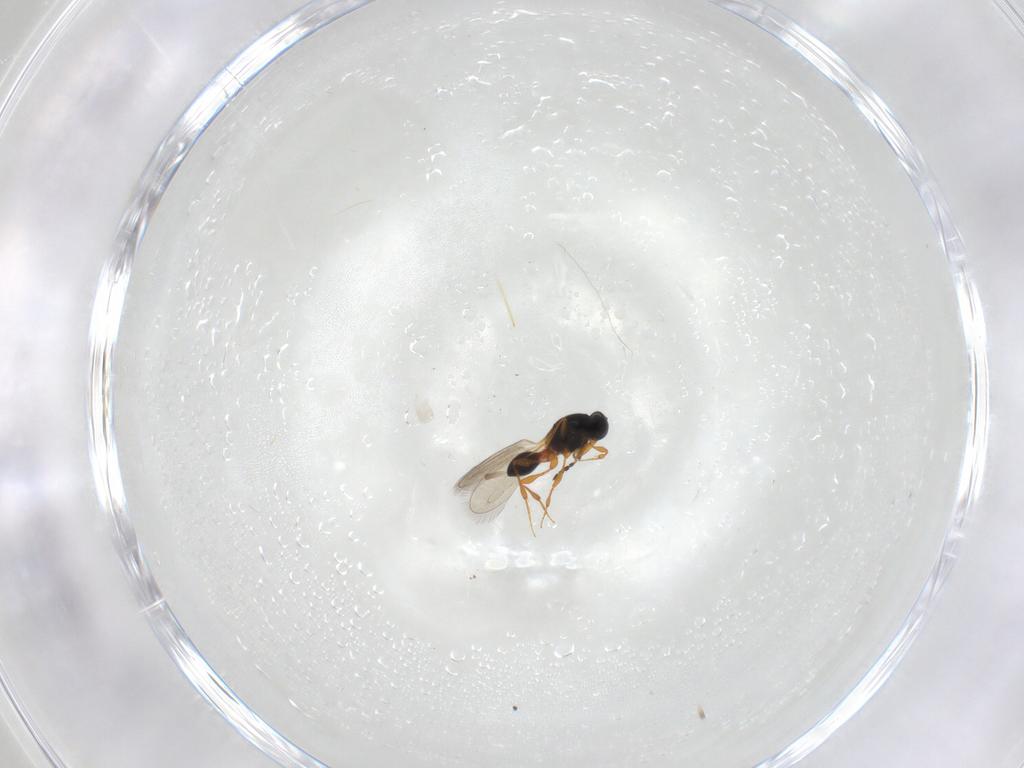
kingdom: Animalia
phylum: Arthropoda
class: Insecta
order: Hymenoptera
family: Platygastridae
